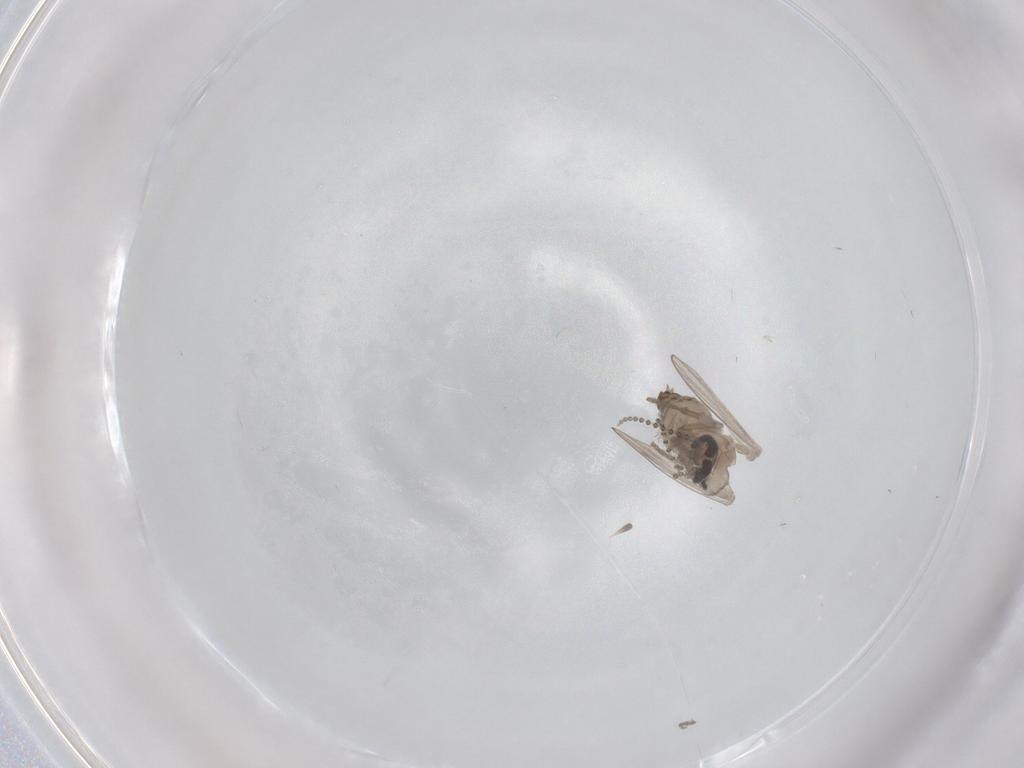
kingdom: Animalia
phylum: Arthropoda
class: Insecta
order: Diptera
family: Psychodidae
